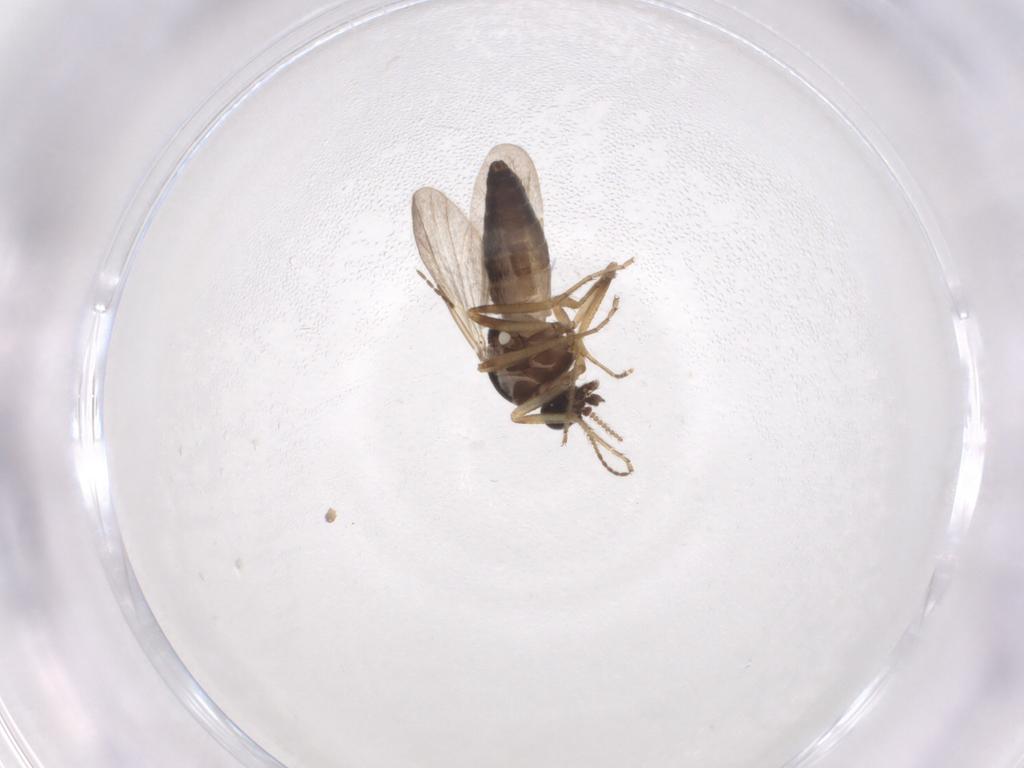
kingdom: Animalia
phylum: Arthropoda
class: Insecta
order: Diptera
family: Ceratopogonidae
